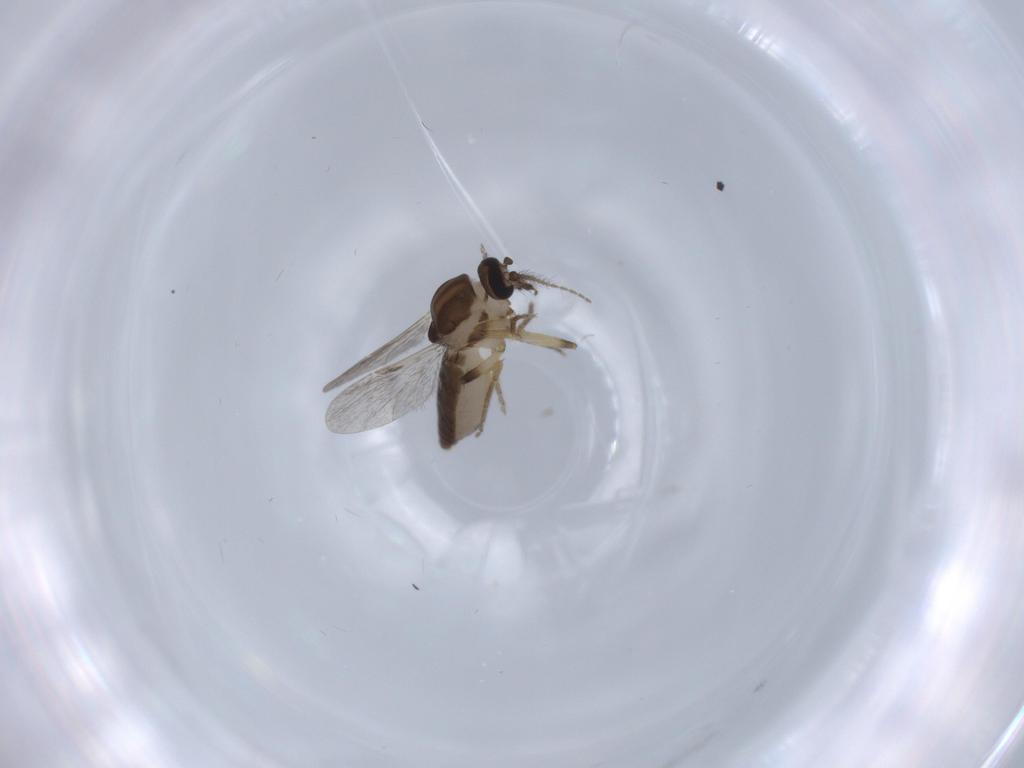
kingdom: Animalia
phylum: Arthropoda
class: Insecta
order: Diptera
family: Ceratopogonidae
